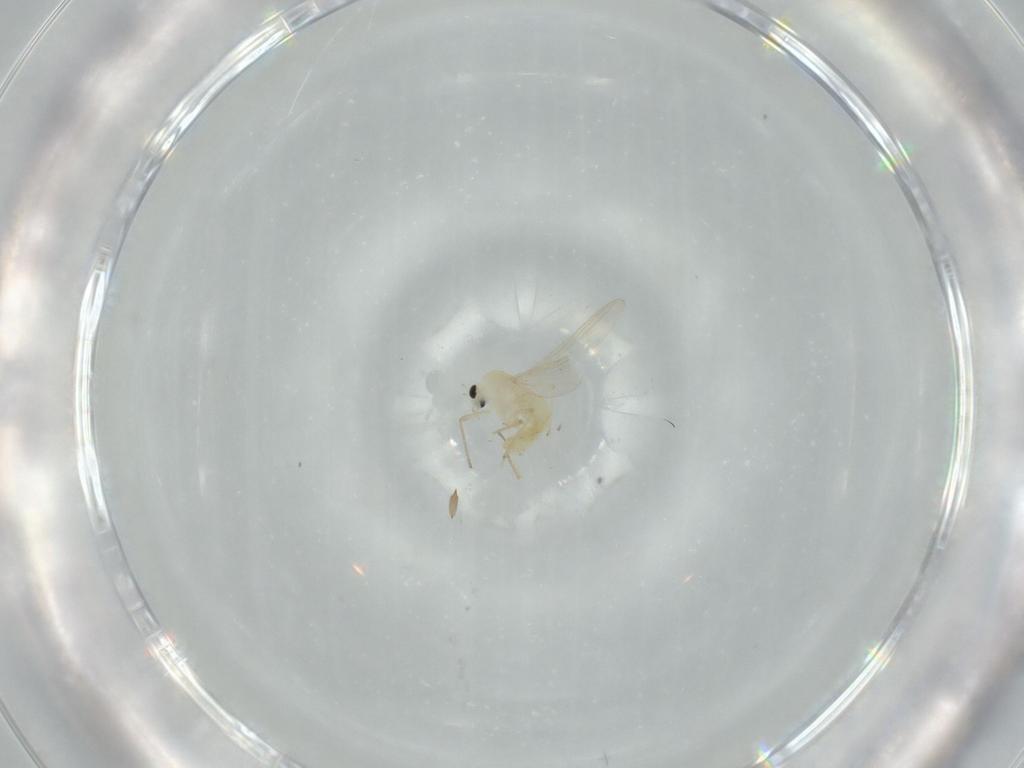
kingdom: Animalia
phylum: Arthropoda
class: Insecta
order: Diptera
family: Chironomidae
